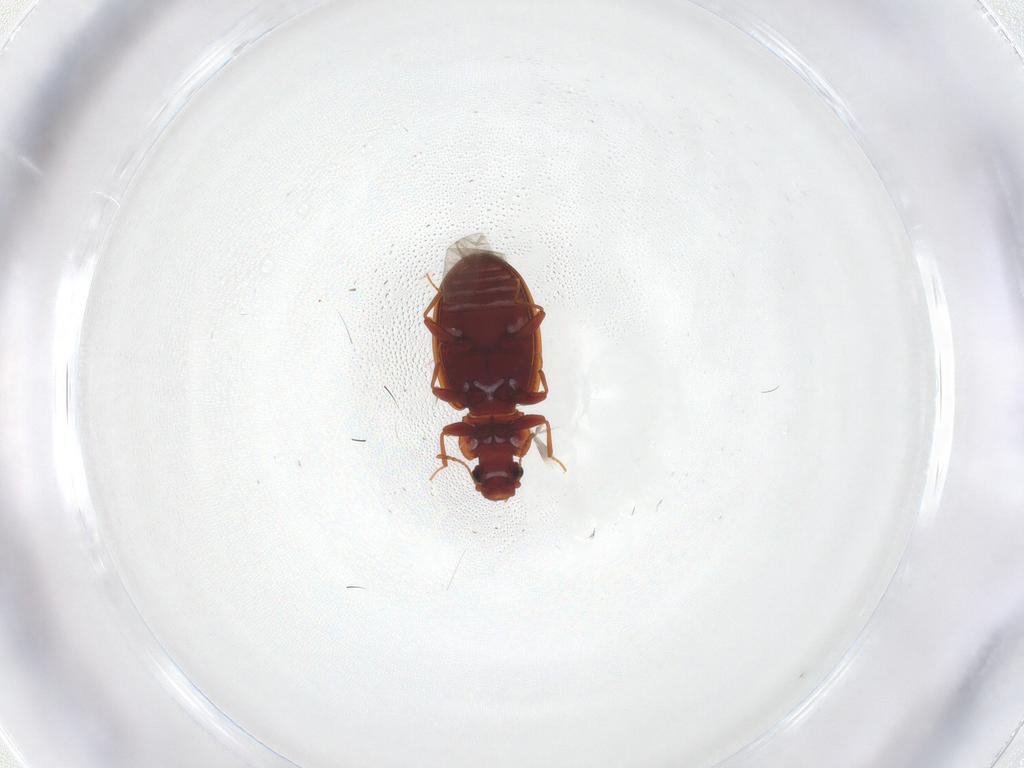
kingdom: Animalia
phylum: Arthropoda
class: Insecta
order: Coleoptera
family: Latridiidae
